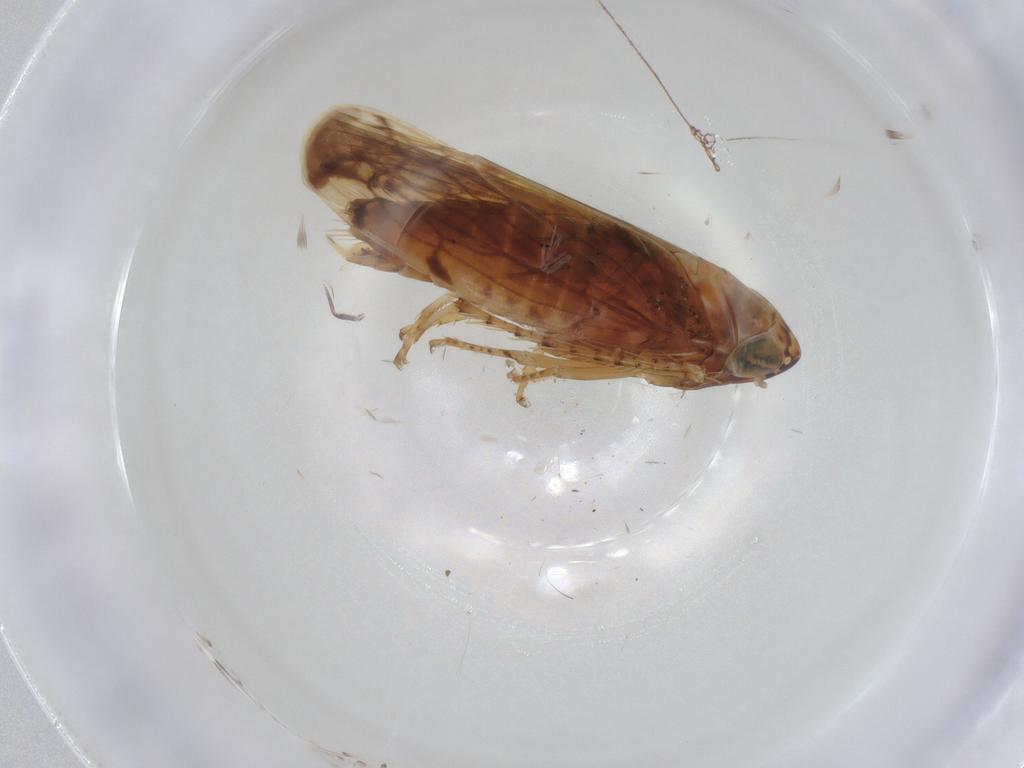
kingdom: Animalia
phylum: Arthropoda
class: Insecta
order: Hemiptera
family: Cicadellidae
